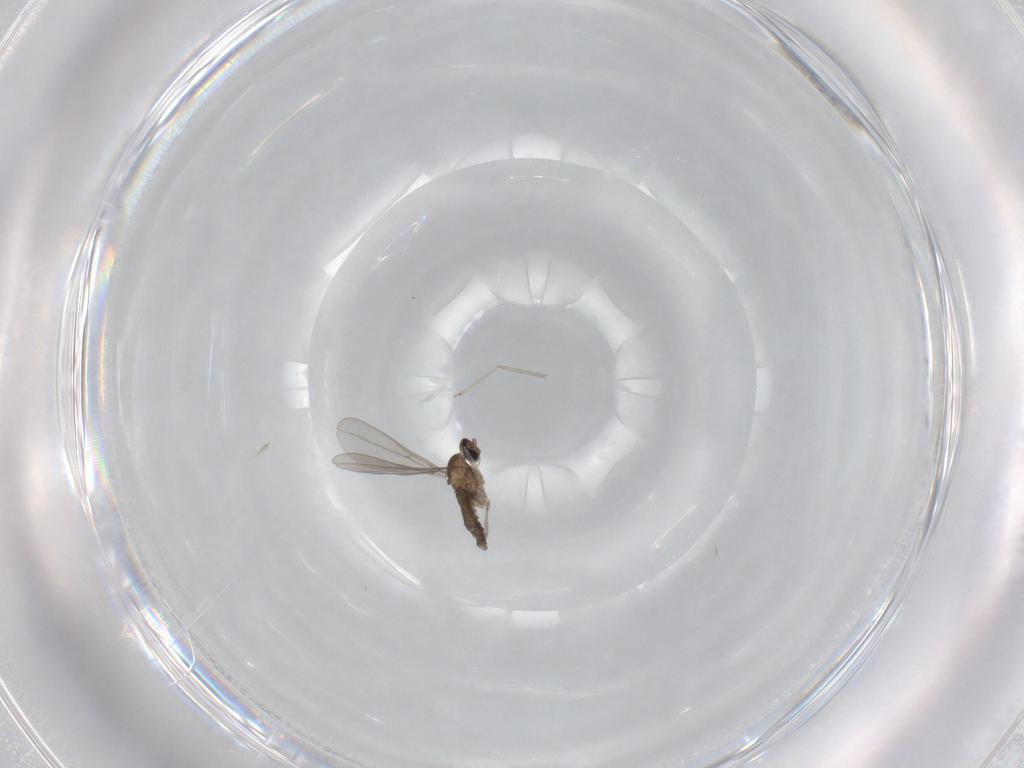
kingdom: Animalia
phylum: Arthropoda
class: Insecta
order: Diptera
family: Cecidomyiidae
